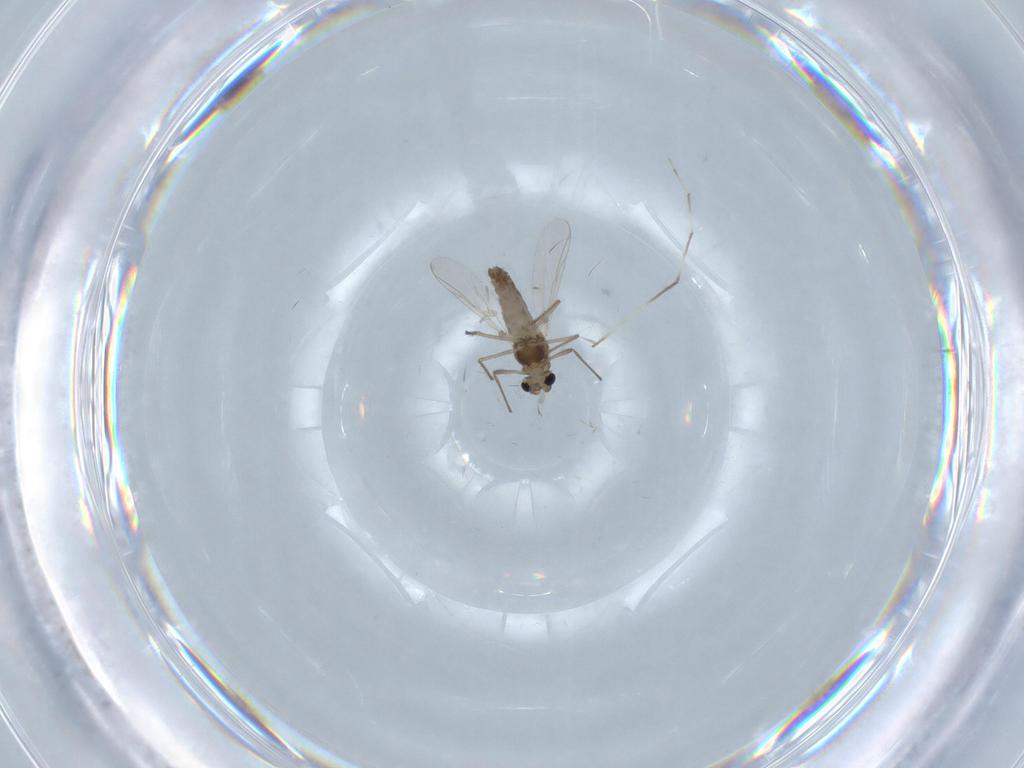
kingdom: Animalia
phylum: Arthropoda
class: Insecta
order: Diptera
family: Chironomidae
